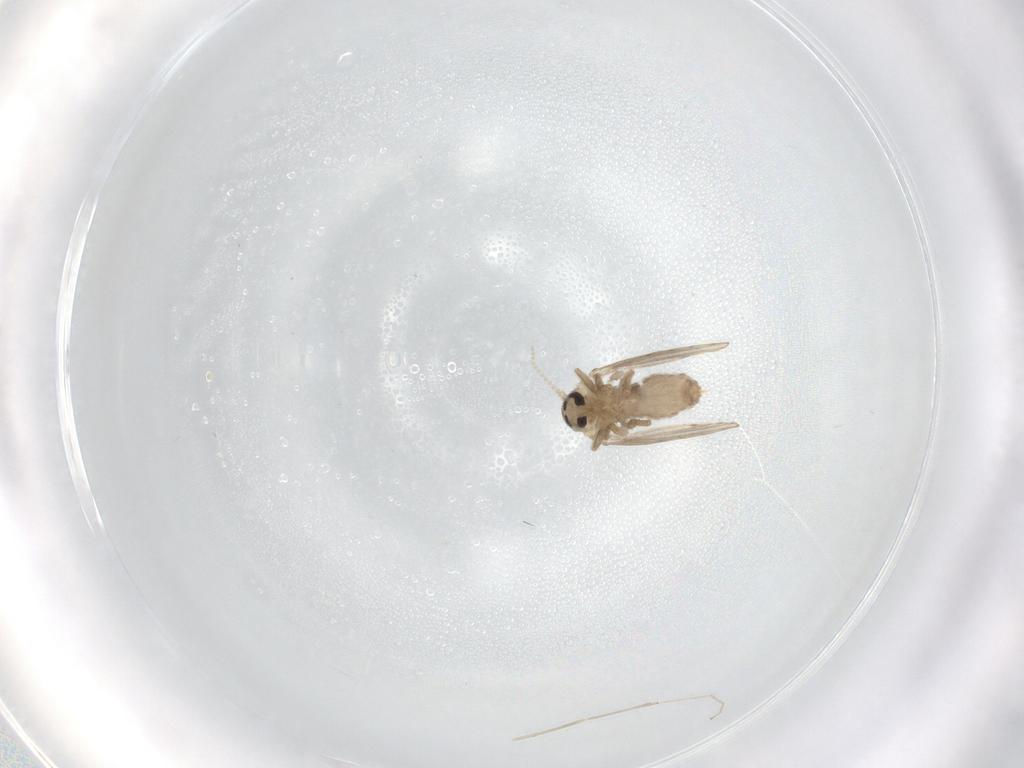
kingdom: Animalia
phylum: Arthropoda
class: Insecta
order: Diptera
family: Psychodidae
